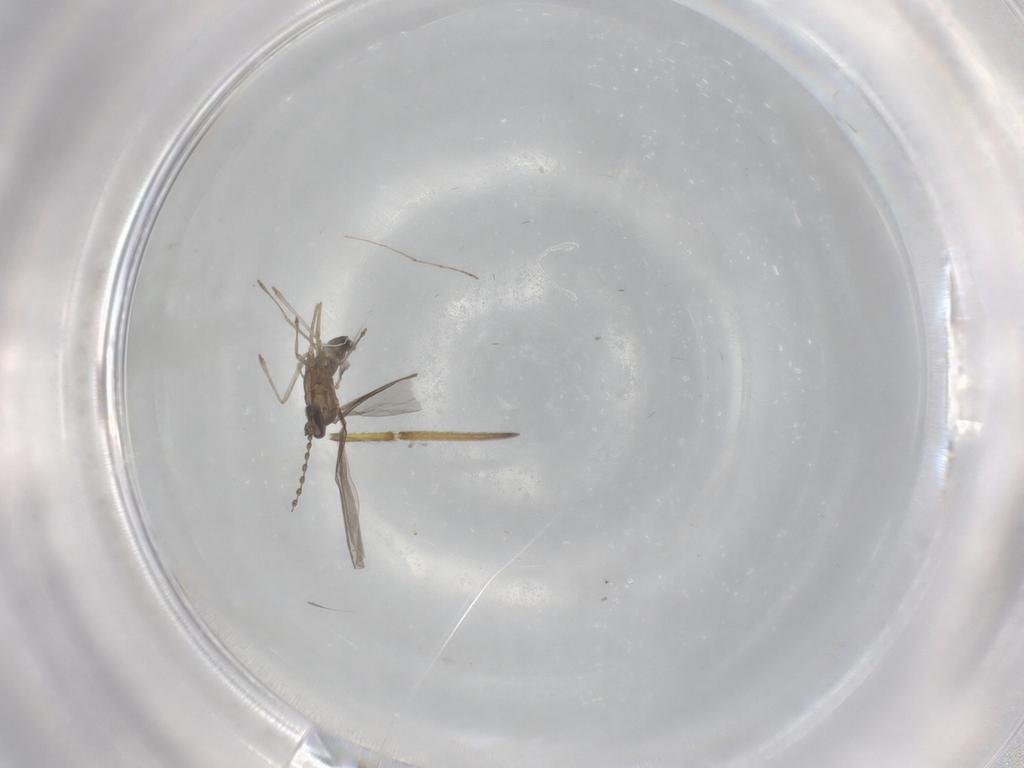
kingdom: Animalia
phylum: Arthropoda
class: Insecta
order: Diptera
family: Cecidomyiidae
